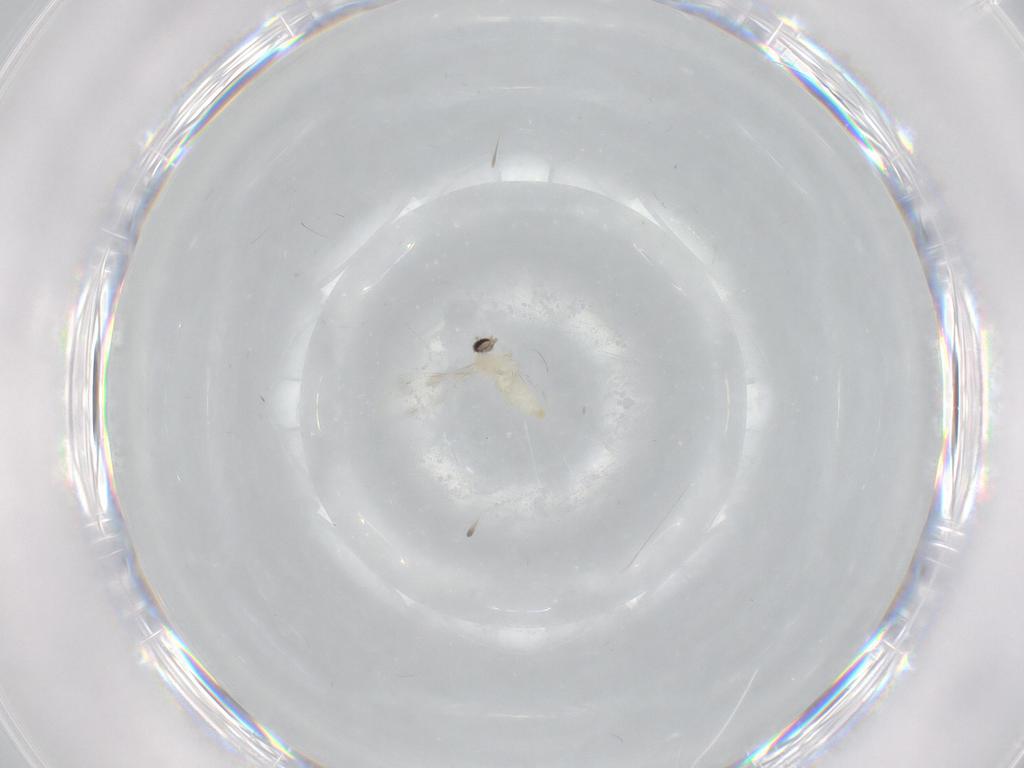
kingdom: Animalia
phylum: Arthropoda
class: Insecta
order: Diptera
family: Cecidomyiidae
